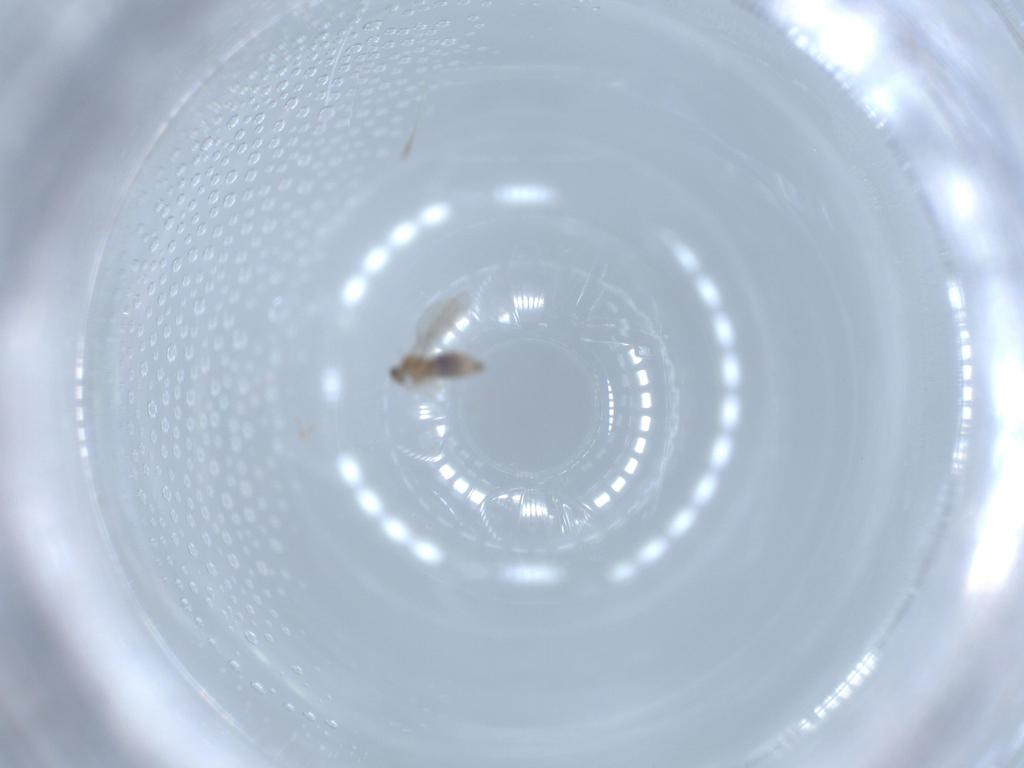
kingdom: Animalia
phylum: Arthropoda
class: Insecta
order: Diptera
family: Cecidomyiidae
